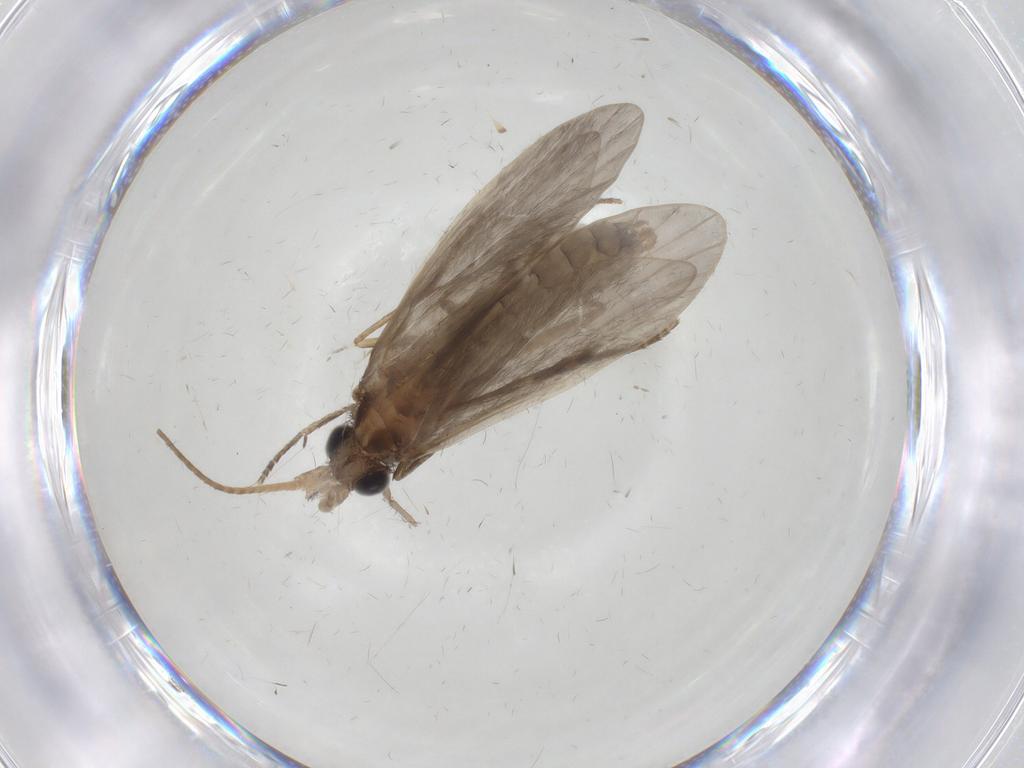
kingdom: Animalia
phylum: Arthropoda
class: Insecta
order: Trichoptera
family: Helicopsychidae
